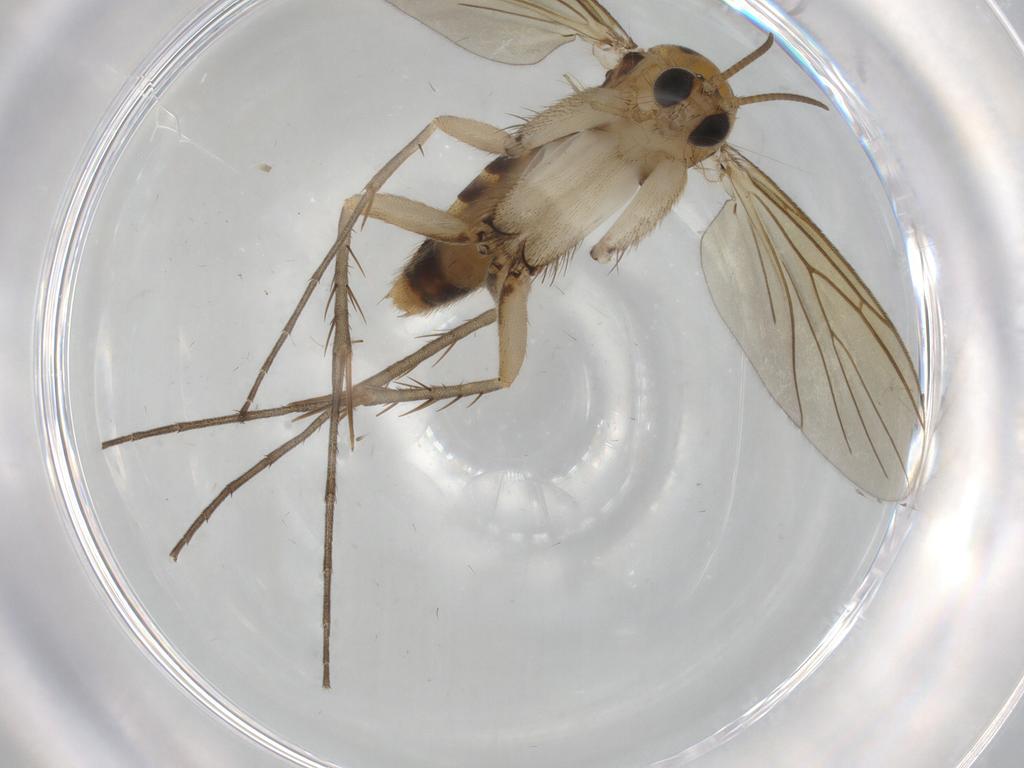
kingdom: Animalia
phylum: Arthropoda
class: Insecta
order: Diptera
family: Mycetophilidae
